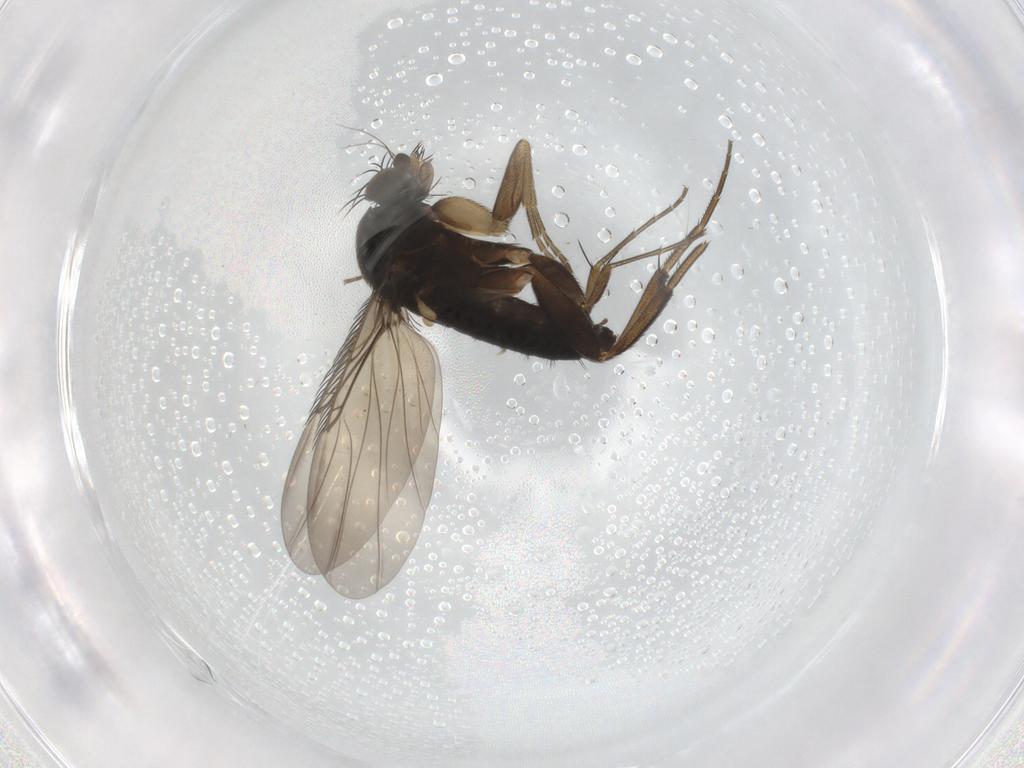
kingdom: Animalia
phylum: Arthropoda
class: Insecta
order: Diptera
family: Phoridae
